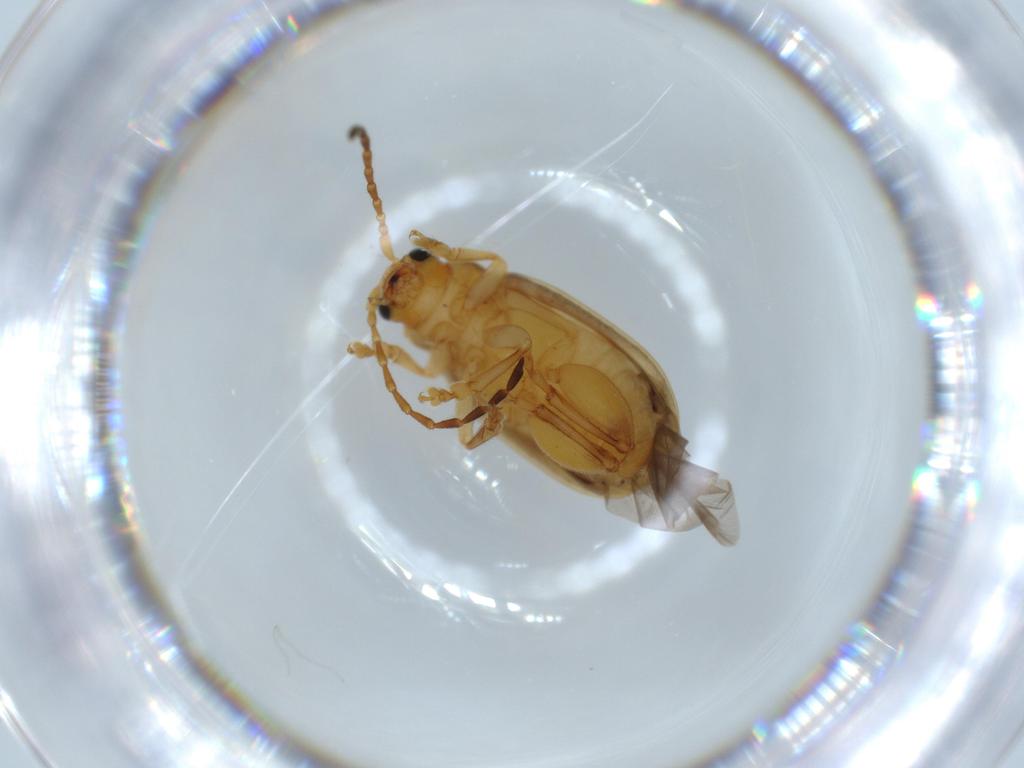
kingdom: Animalia
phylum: Arthropoda
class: Insecta
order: Coleoptera
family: Chrysomelidae
